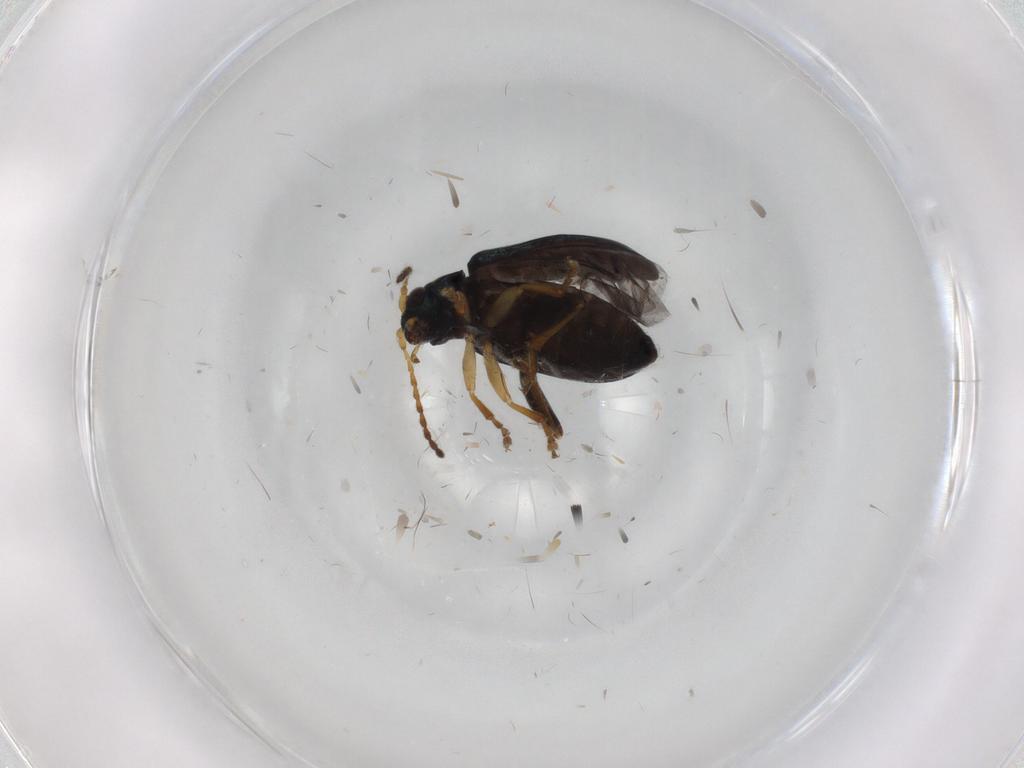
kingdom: Animalia
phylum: Arthropoda
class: Insecta
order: Coleoptera
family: Chrysomelidae
